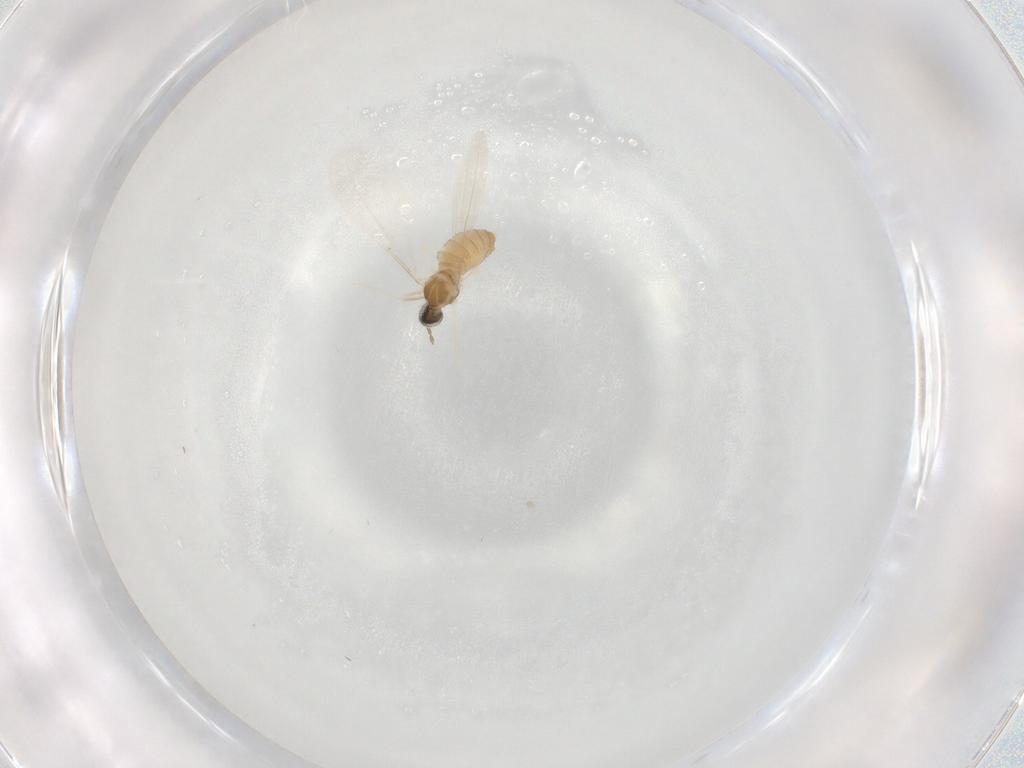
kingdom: Animalia
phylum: Arthropoda
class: Insecta
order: Diptera
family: Cecidomyiidae
